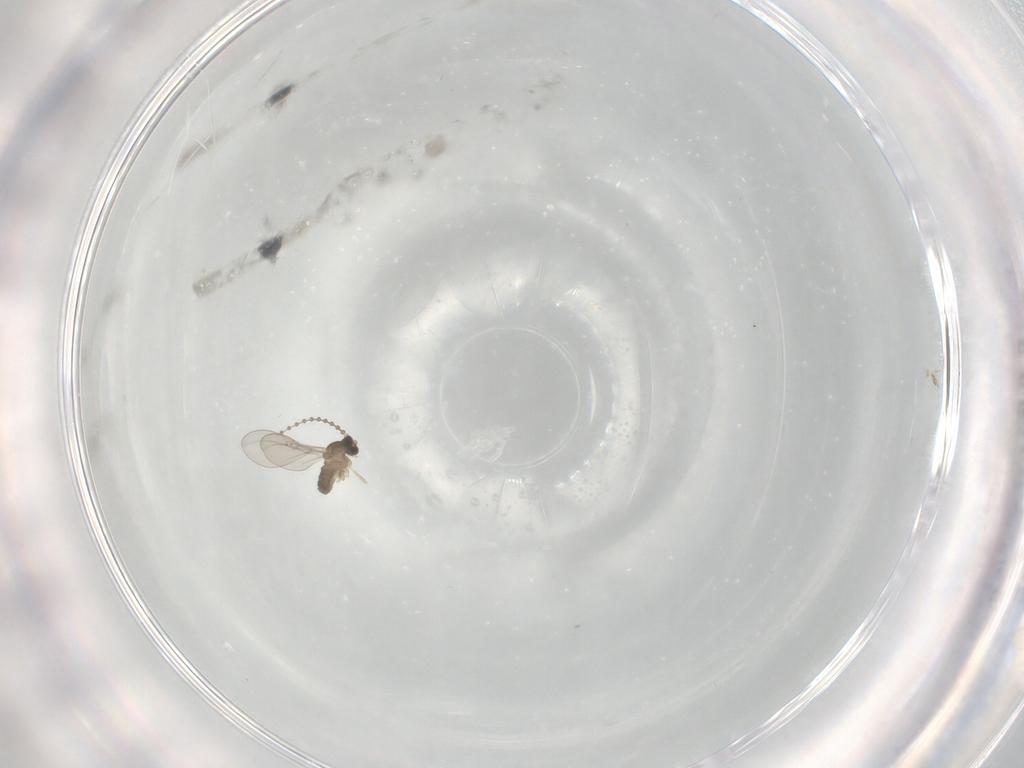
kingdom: Animalia
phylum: Arthropoda
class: Insecta
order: Diptera
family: Cecidomyiidae
